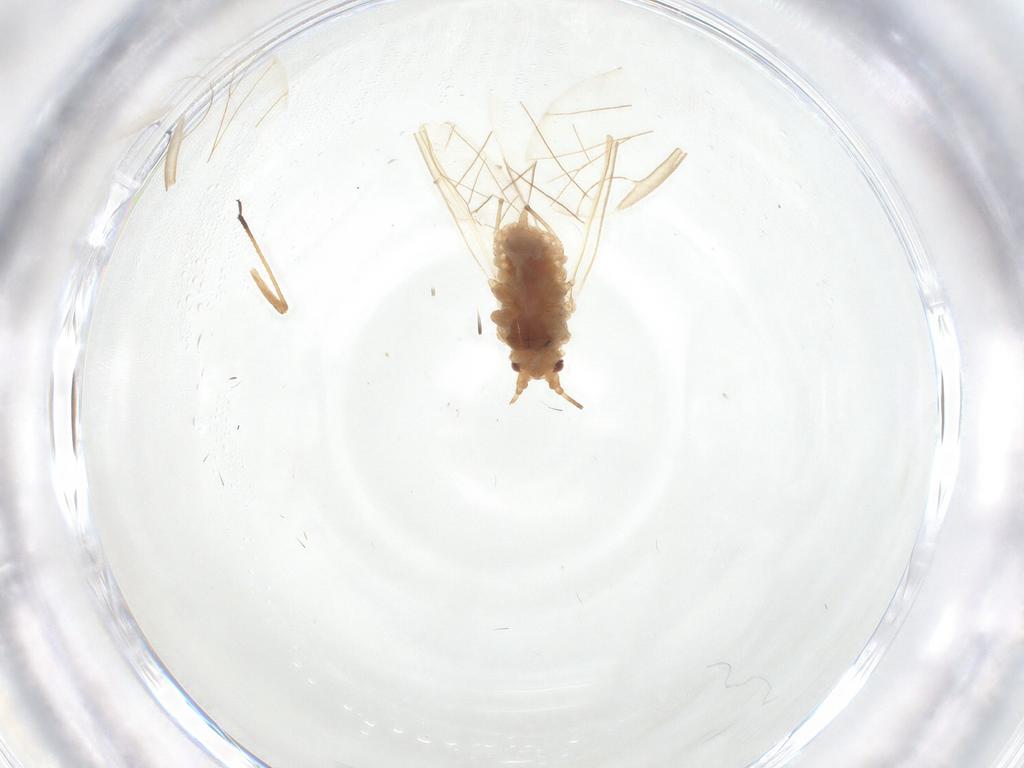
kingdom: Animalia
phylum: Arthropoda
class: Insecta
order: Hemiptera
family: Aphididae
